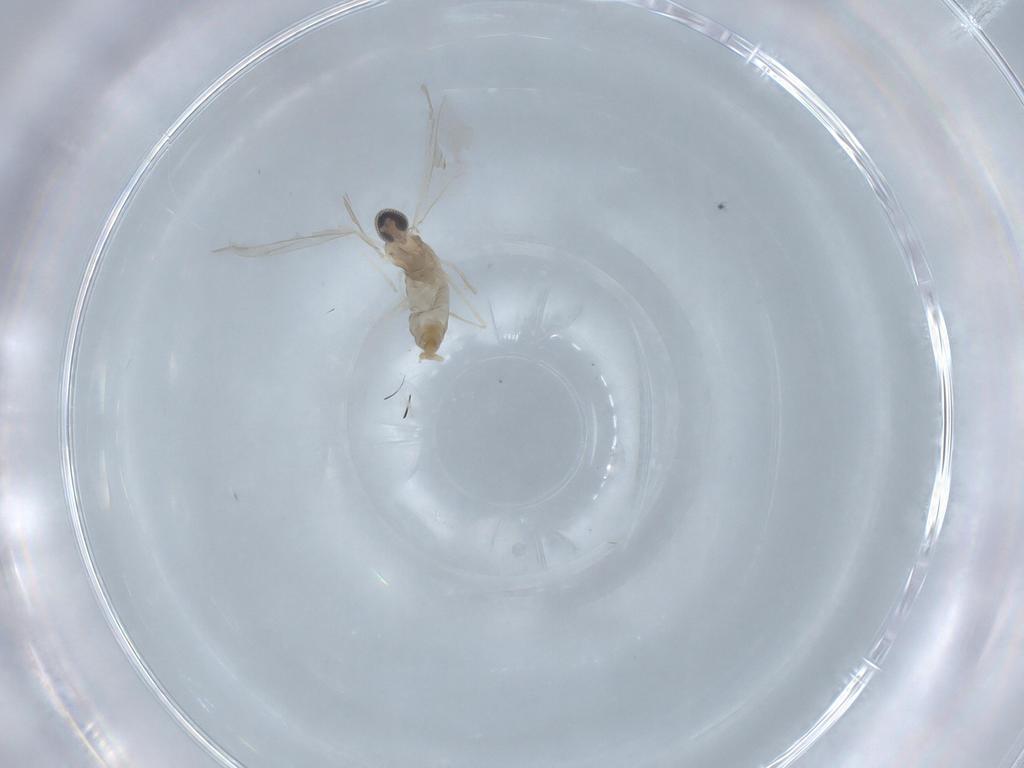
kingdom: Animalia
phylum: Arthropoda
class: Insecta
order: Diptera
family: Cecidomyiidae
